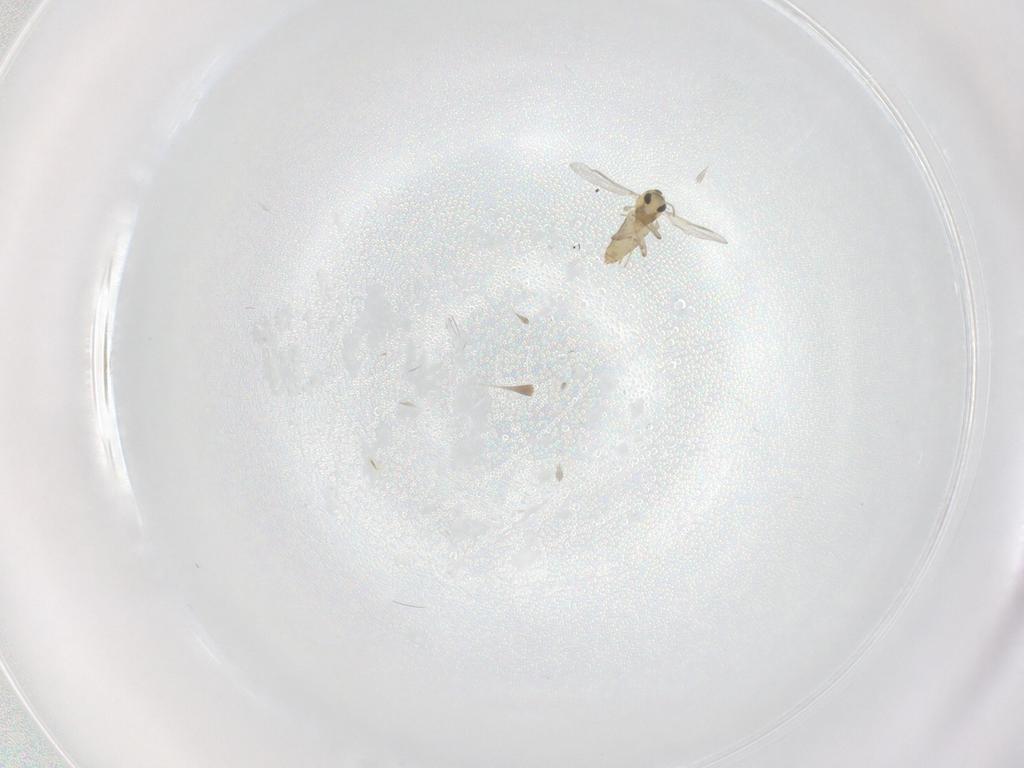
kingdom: Animalia
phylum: Arthropoda
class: Insecta
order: Diptera
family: Chironomidae
